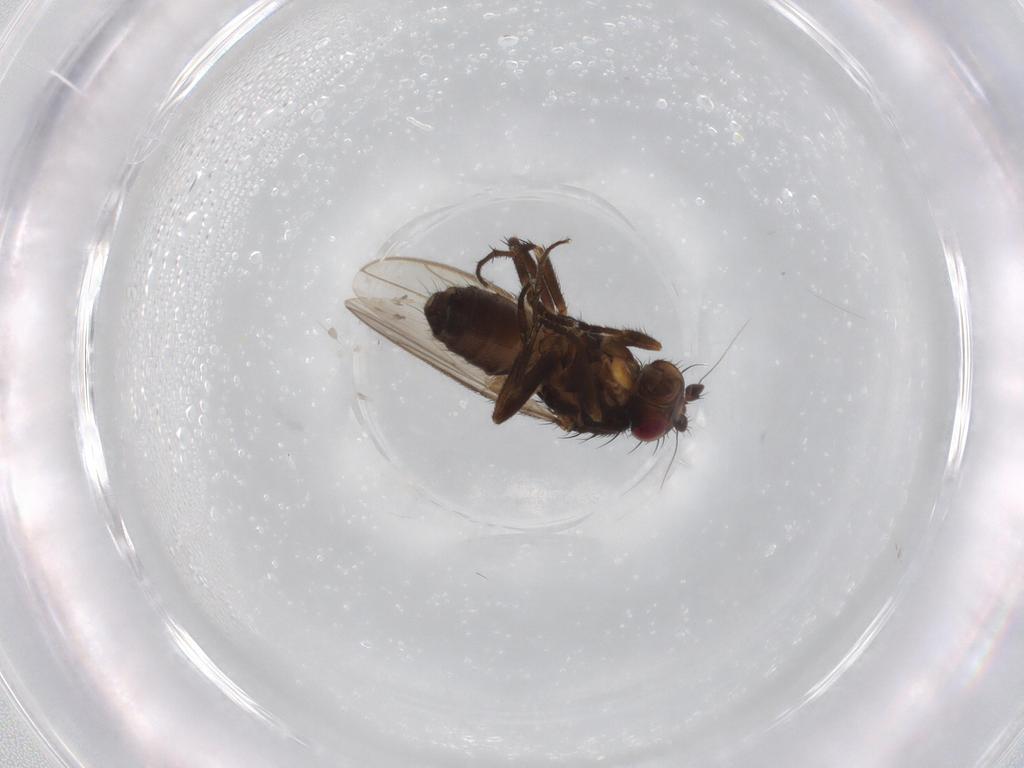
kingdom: Animalia
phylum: Arthropoda
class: Insecta
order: Diptera
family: Sphaeroceridae
